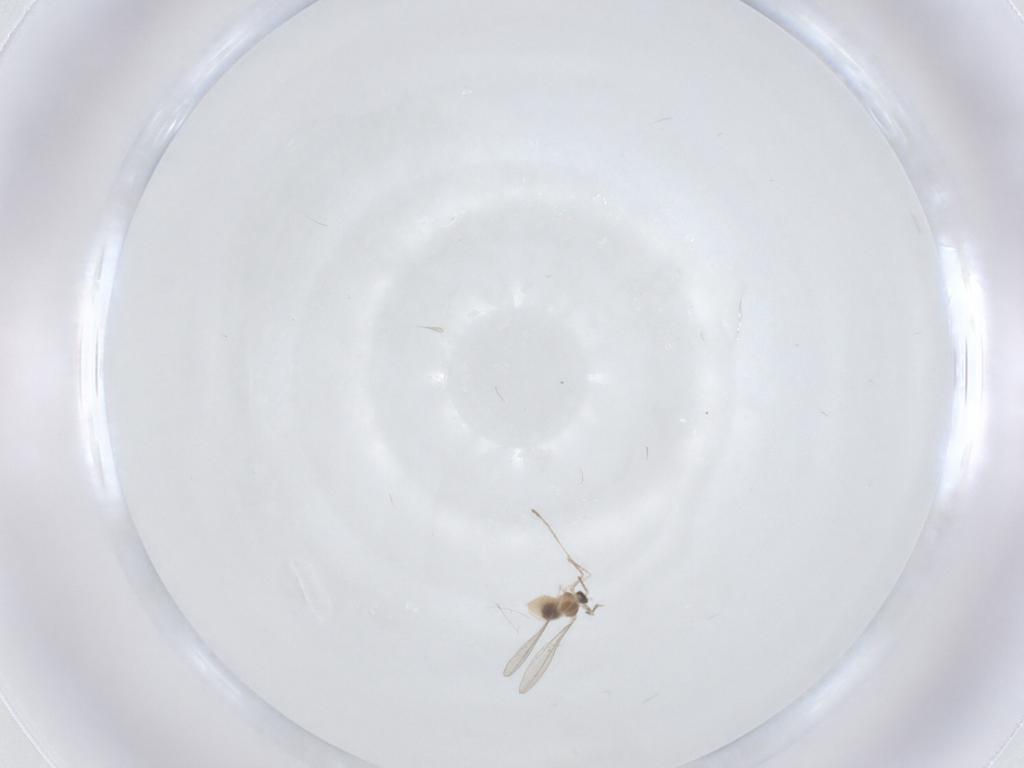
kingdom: Animalia
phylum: Arthropoda
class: Insecta
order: Diptera
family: Cecidomyiidae
